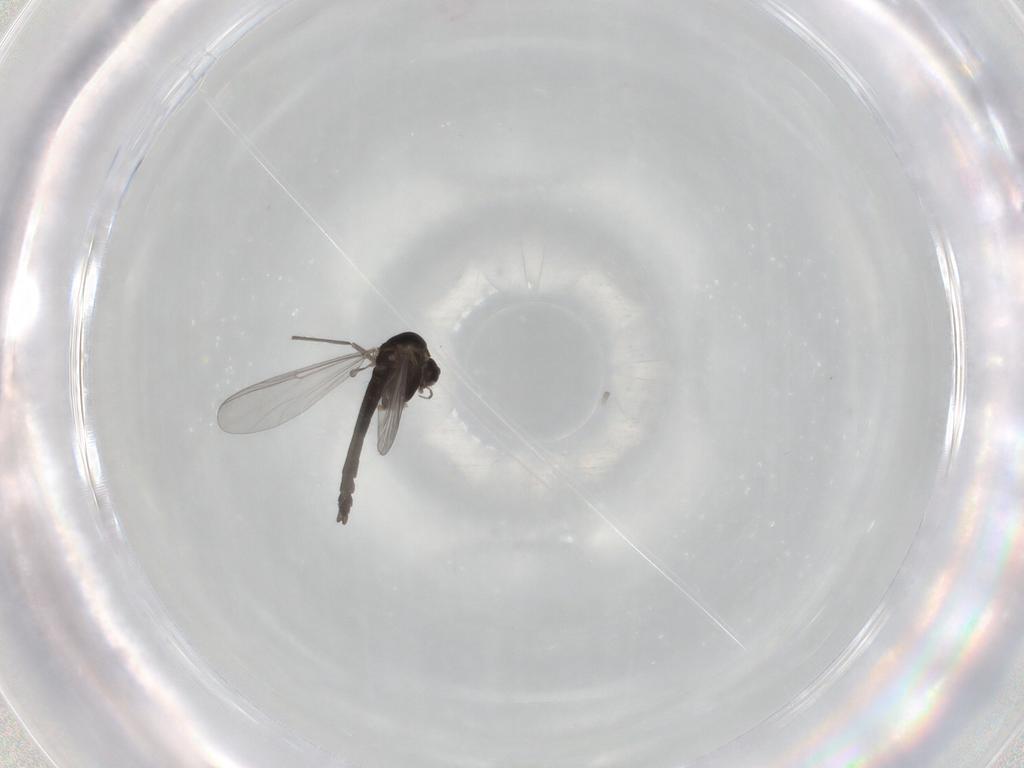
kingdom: Animalia
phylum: Arthropoda
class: Insecta
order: Diptera
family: Chironomidae
